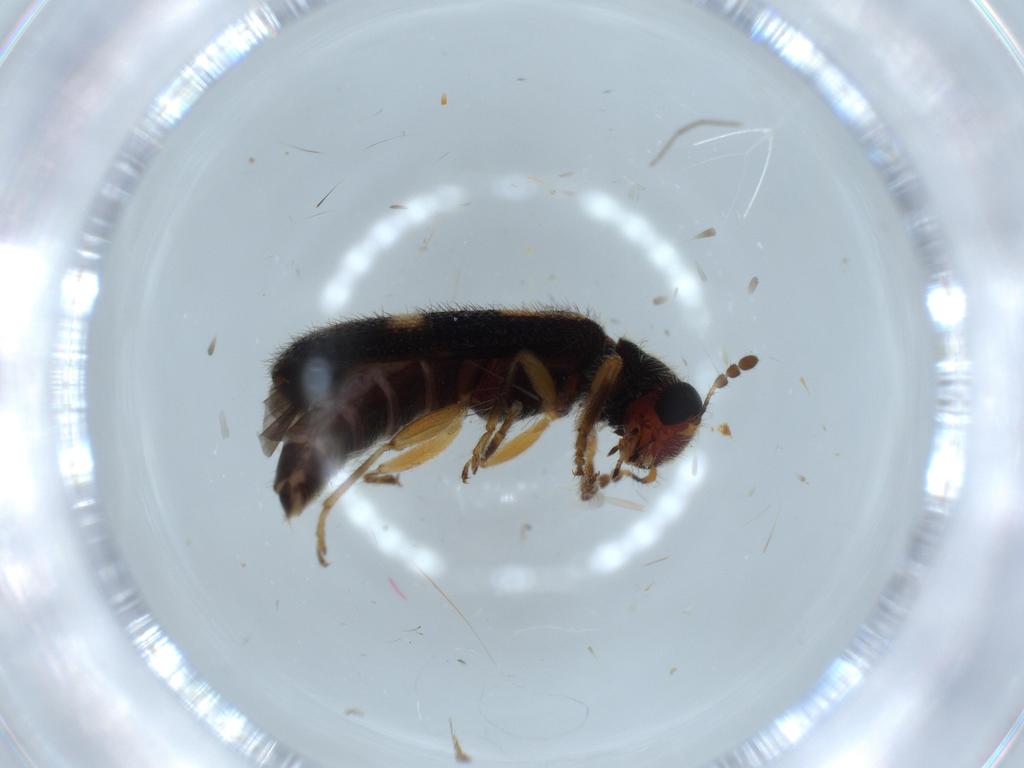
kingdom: Animalia
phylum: Arthropoda
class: Insecta
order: Coleoptera
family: Cleridae
